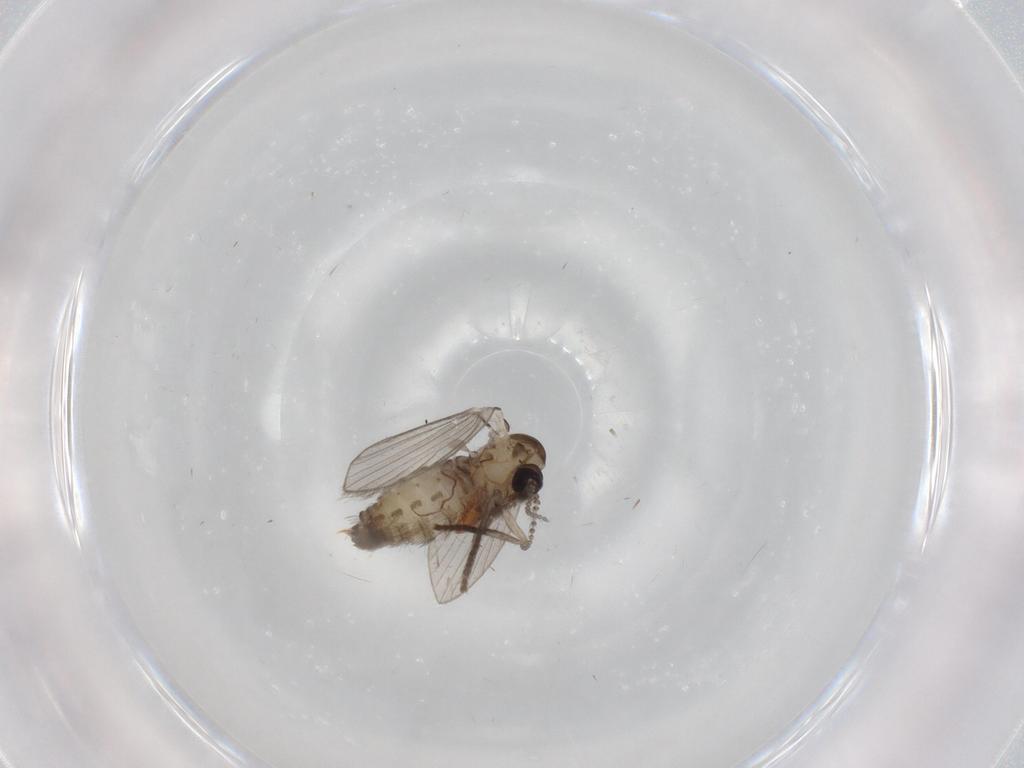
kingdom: Animalia
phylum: Arthropoda
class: Insecta
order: Diptera
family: Psychodidae
